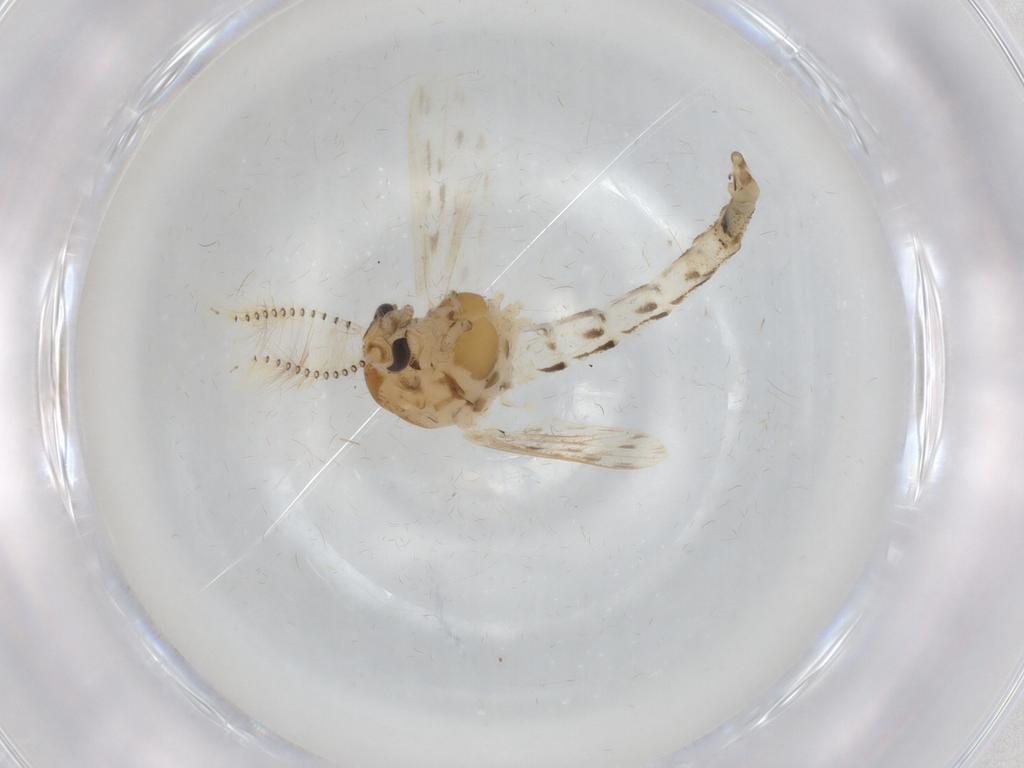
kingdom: Animalia
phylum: Arthropoda
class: Insecta
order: Diptera
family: Chaoboridae
